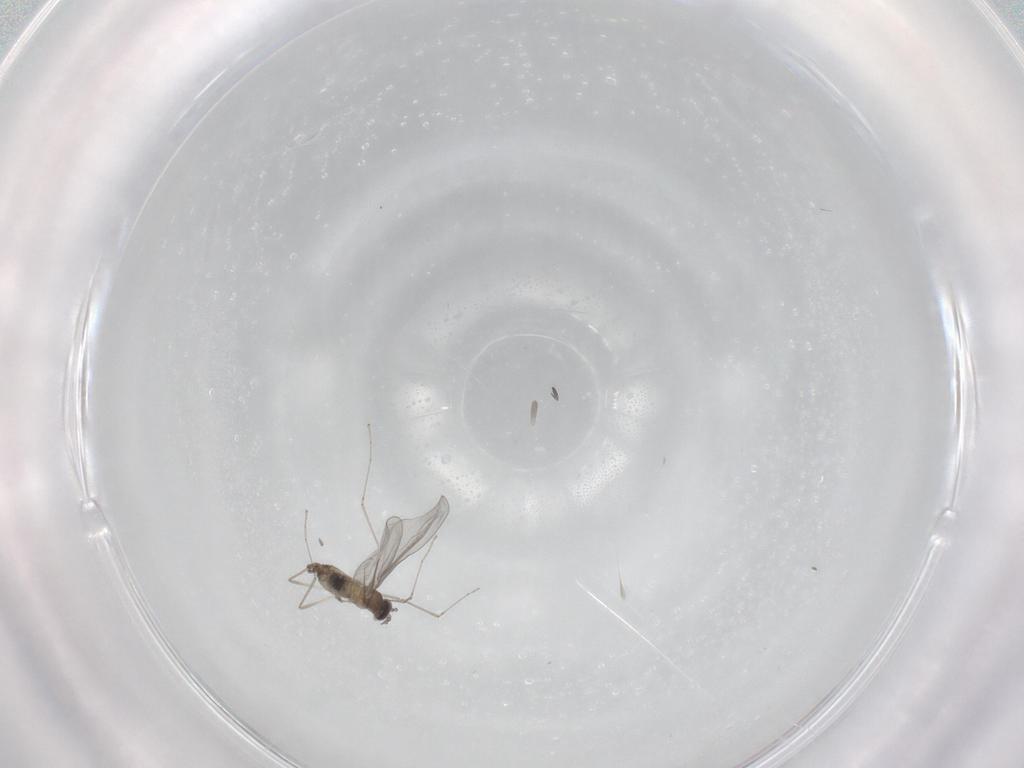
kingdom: Animalia
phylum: Arthropoda
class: Insecta
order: Diptera
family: Cecidomyiidae
